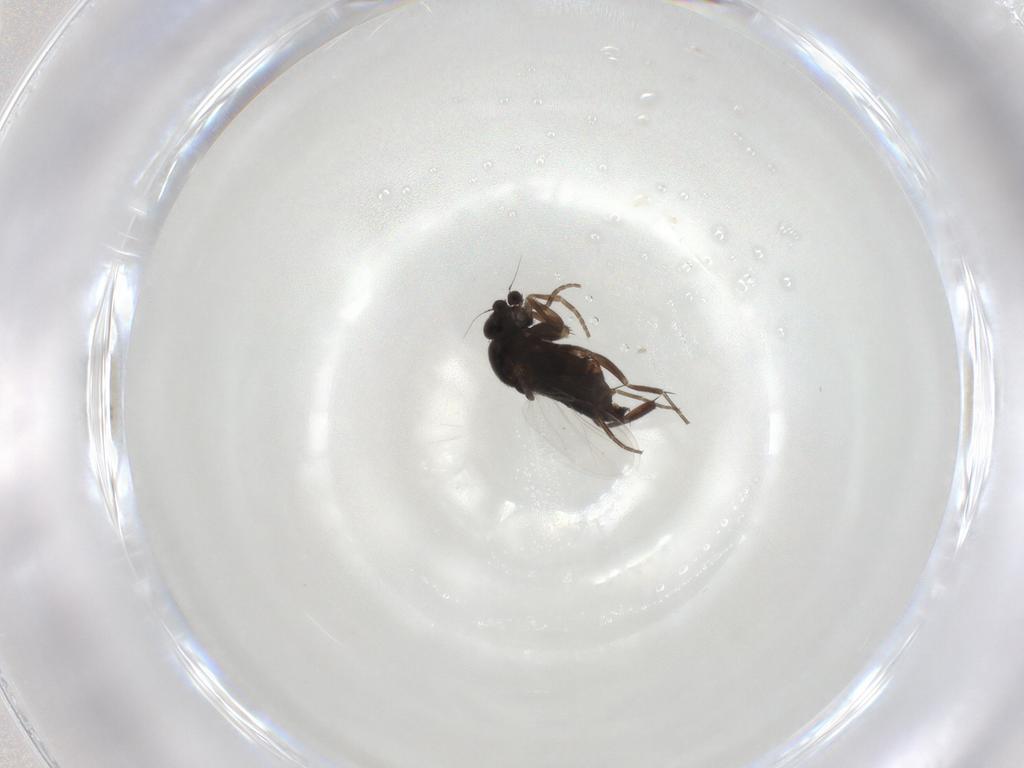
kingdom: Animalia
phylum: Arthropoda
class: Insecta
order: Diptera
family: Phoridae
